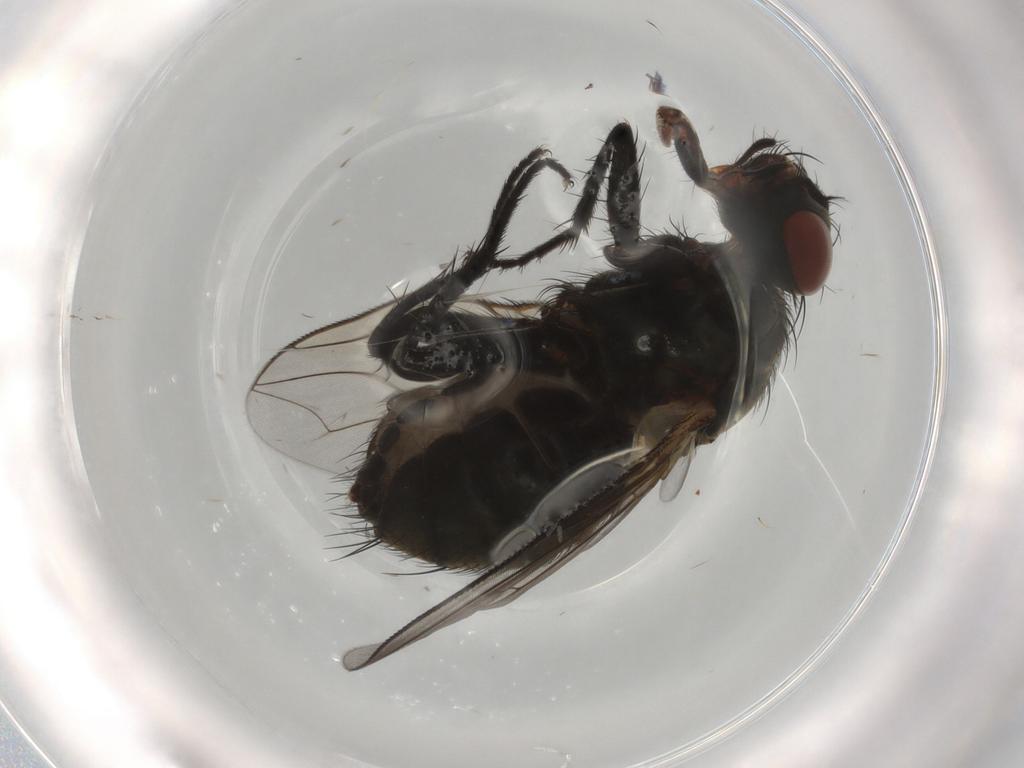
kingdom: Animalia
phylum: Arthropoda
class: Insecta
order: Diptera
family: Sarcophagidae
